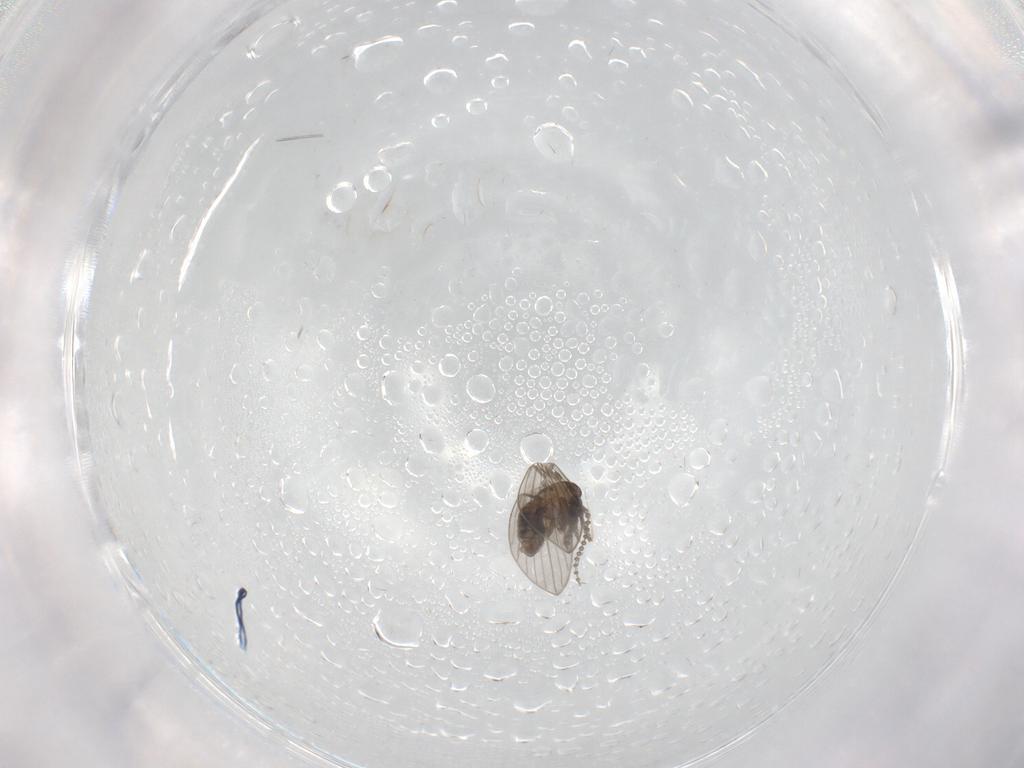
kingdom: Animalia
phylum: Arthropoda
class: Insecta
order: Diptera
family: Psychodidae
